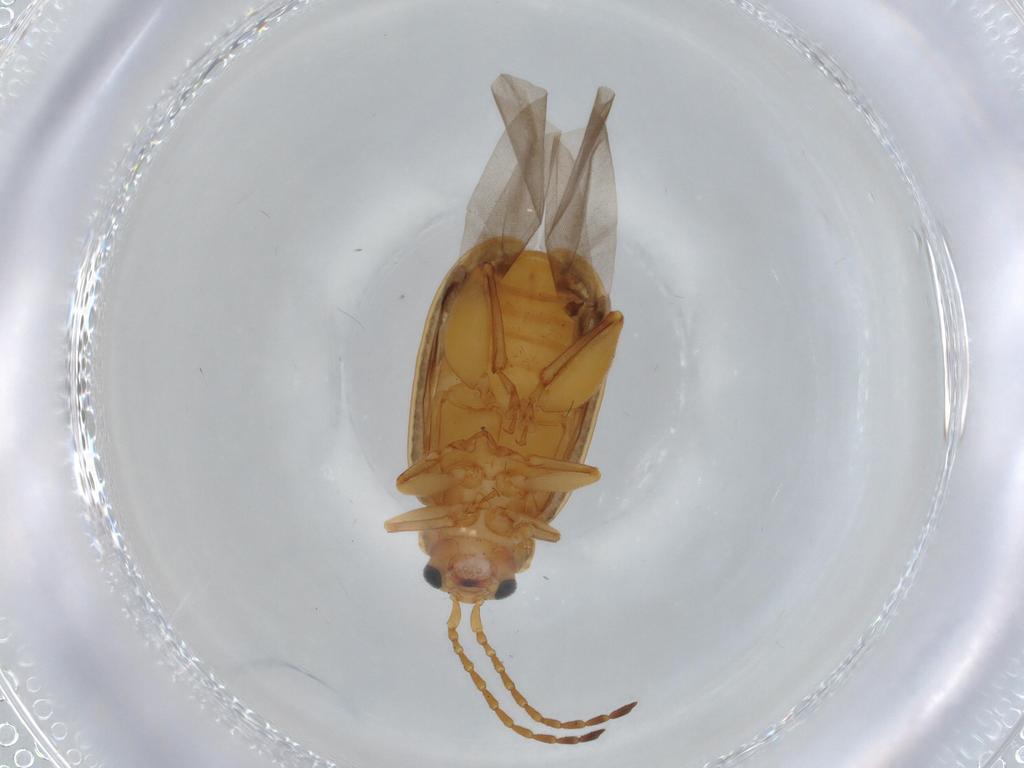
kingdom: Animalia
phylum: Arthropoda
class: Insecta
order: Coleoptera
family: Chrysomelidae
